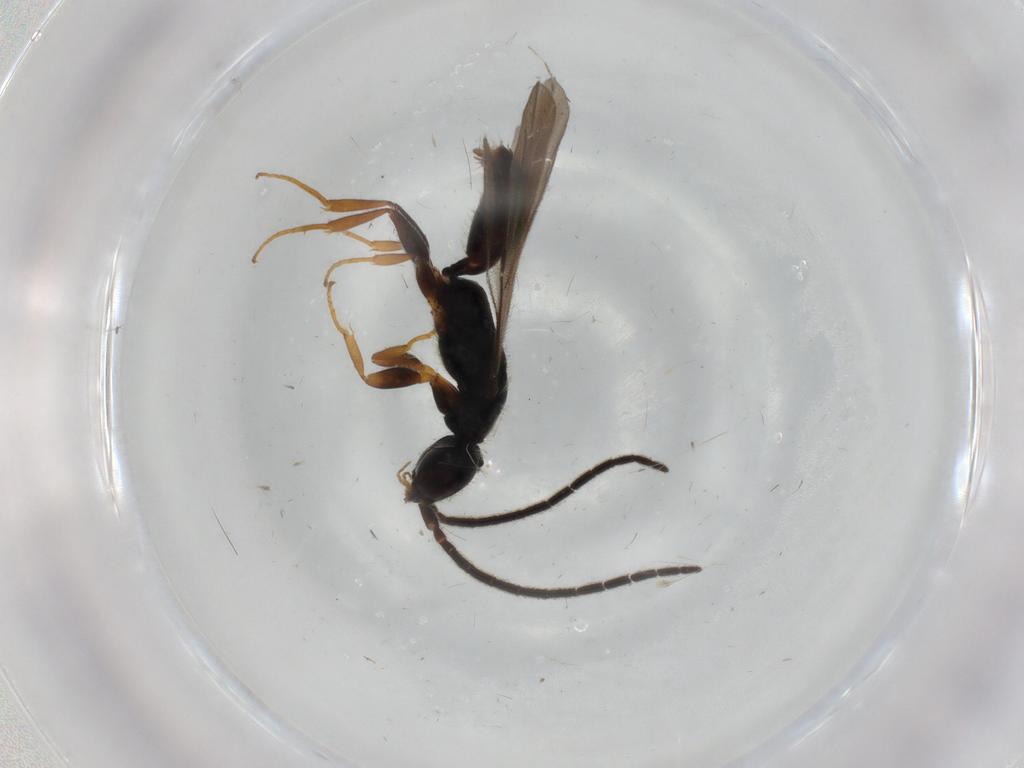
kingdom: Animalia
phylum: Arthropoda
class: Insecta
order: Hymenoptera
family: Bethylidae
